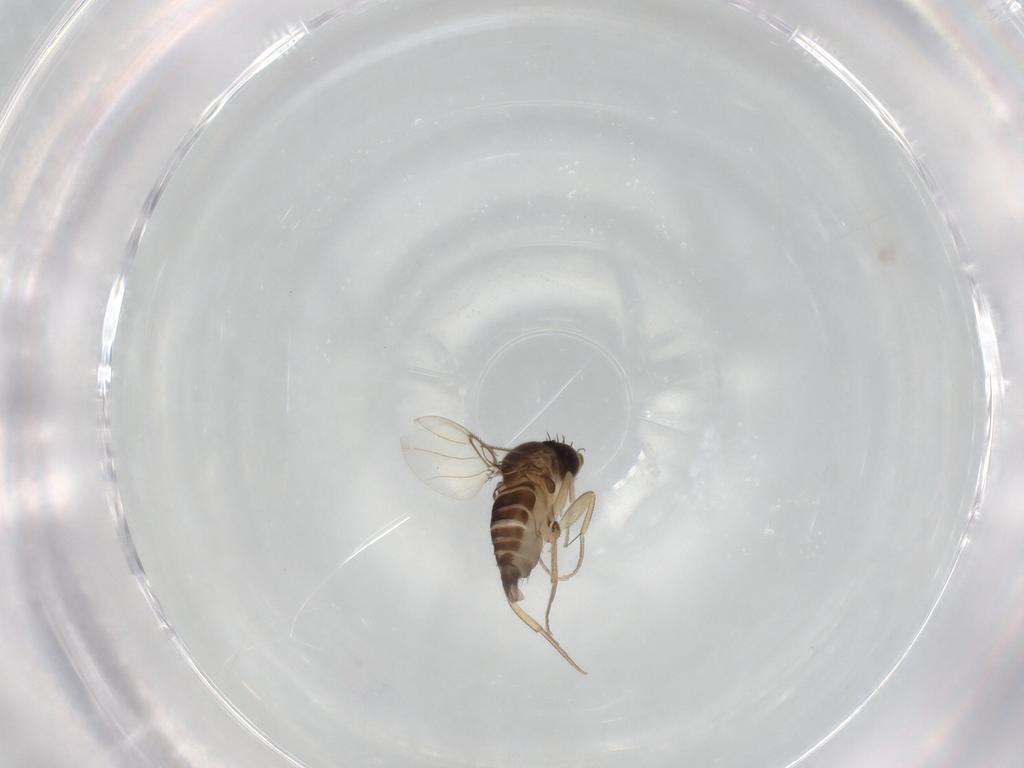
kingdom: Animalia
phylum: Arthropoda
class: Insecta
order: Diptera
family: Phoridae
